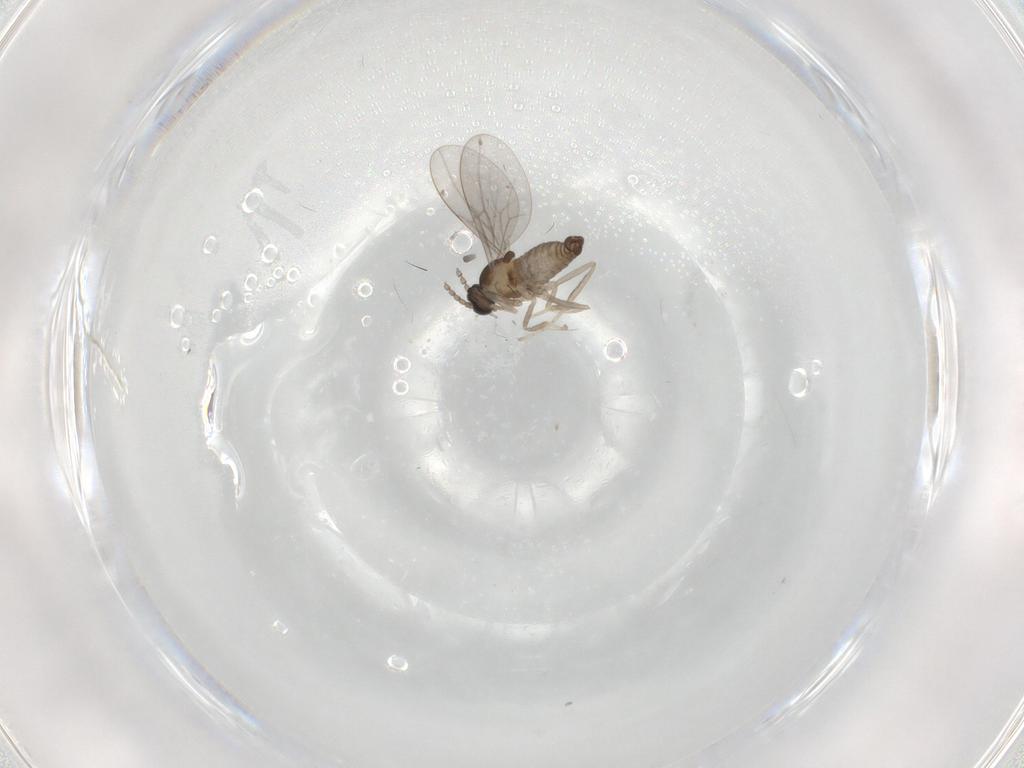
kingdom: Animalia
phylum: Arthropoda
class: Insecta
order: Diptera
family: Cecidomyiidae
